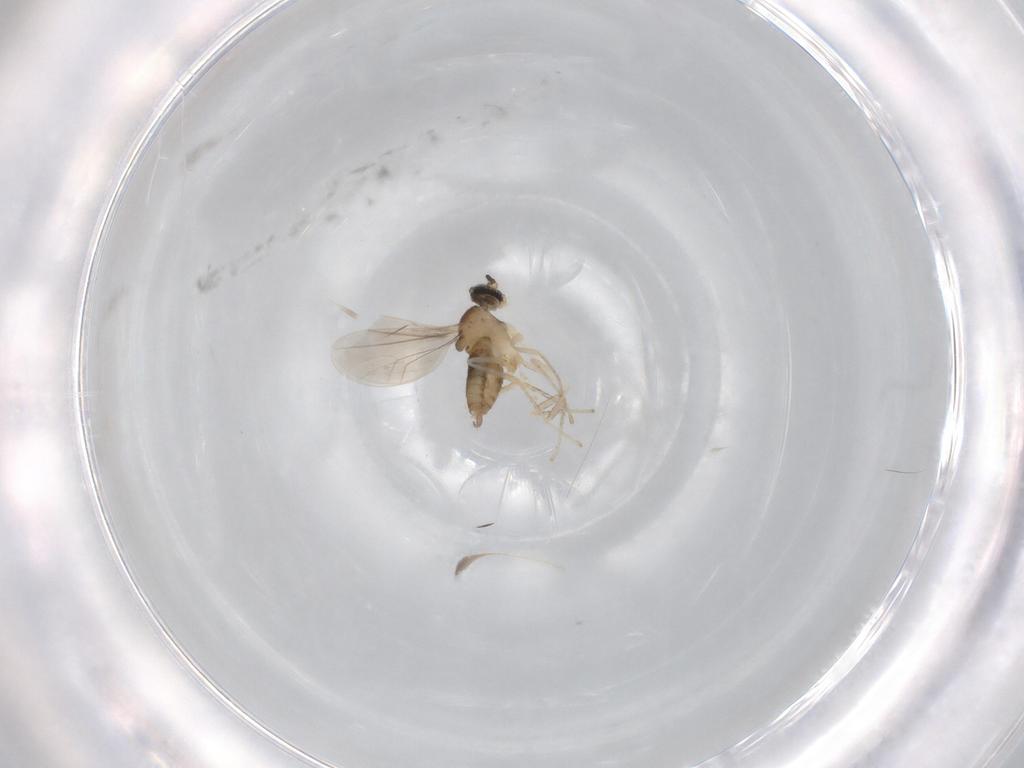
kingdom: Animalia
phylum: Arthropoda
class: Insecta
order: Diptera
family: Cecidomyiidae
